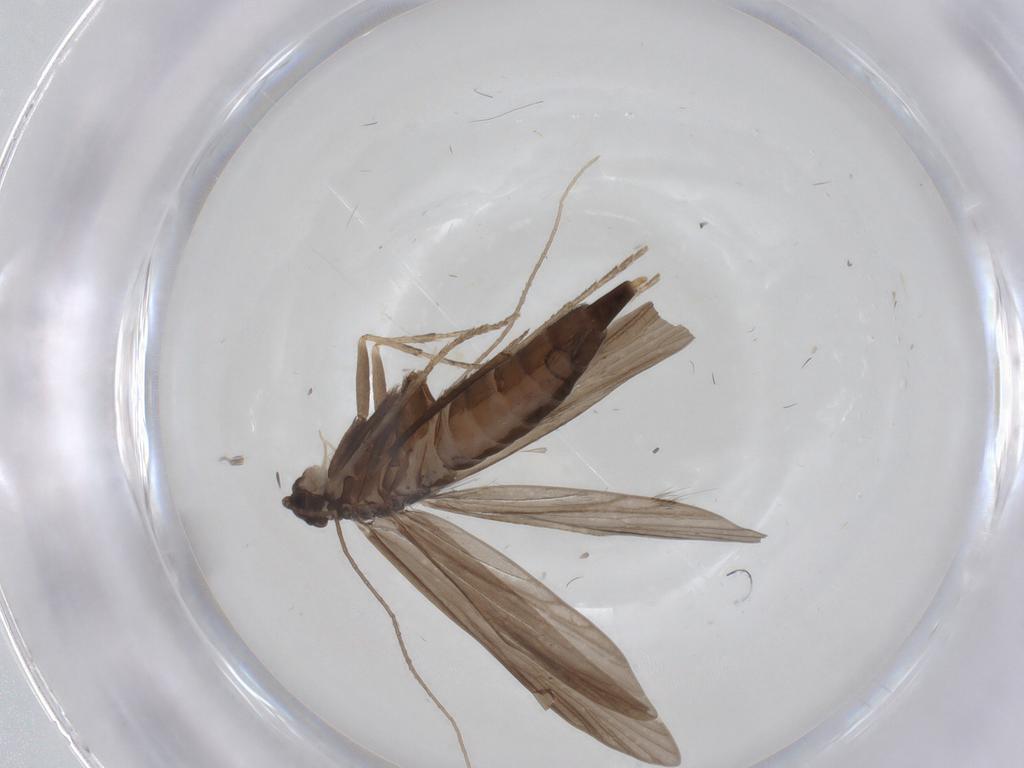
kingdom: Animalia
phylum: Arthropoda
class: Insecta
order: Trichoptera
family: Xiphocentronidae
